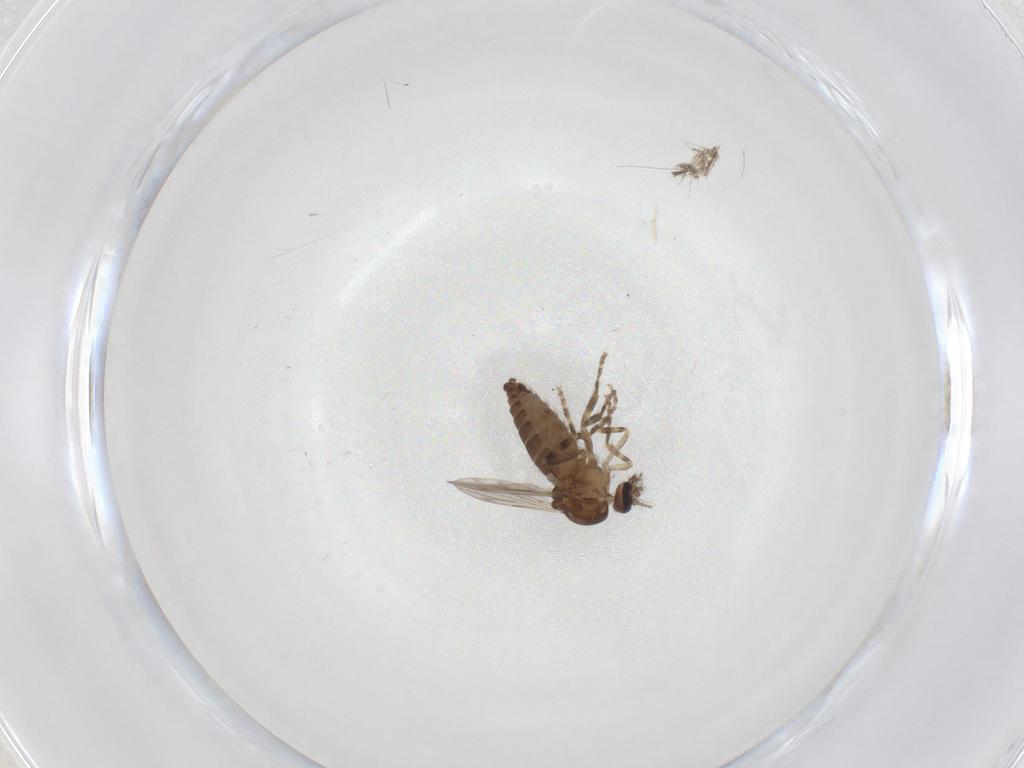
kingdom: Animalia
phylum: Arthropoda
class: Insecta
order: Diptera
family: Ceratopogonidae
